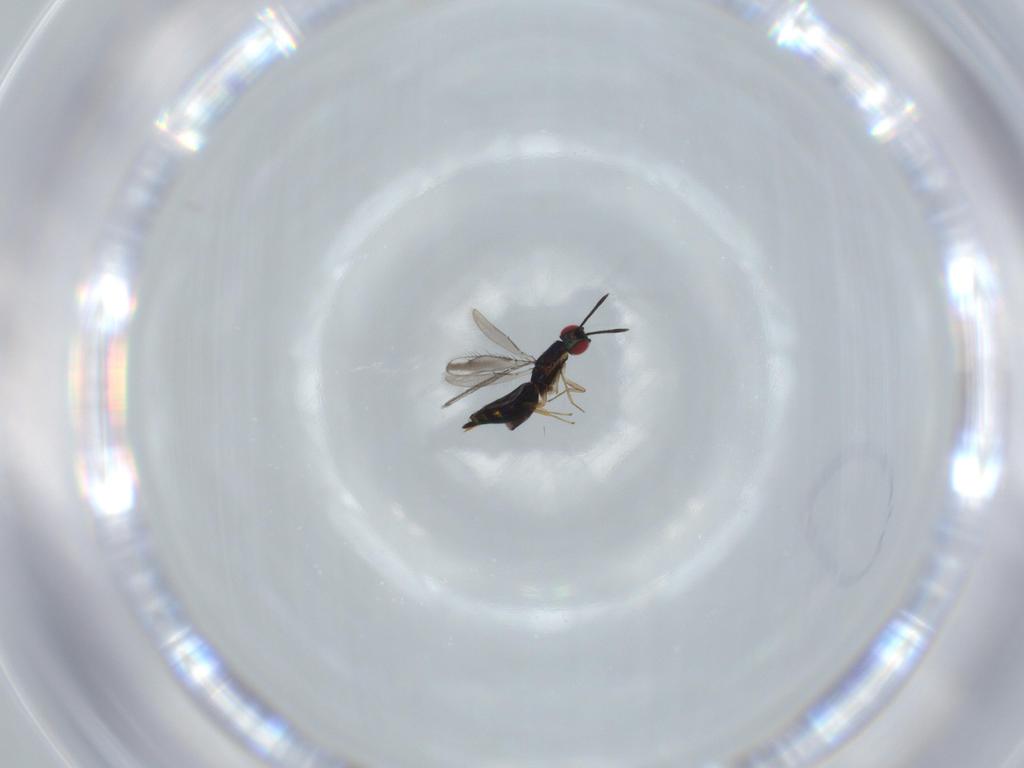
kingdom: Animalia
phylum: Arthropoda
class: Insecta
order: Hymenoptera
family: Pteromalidae
